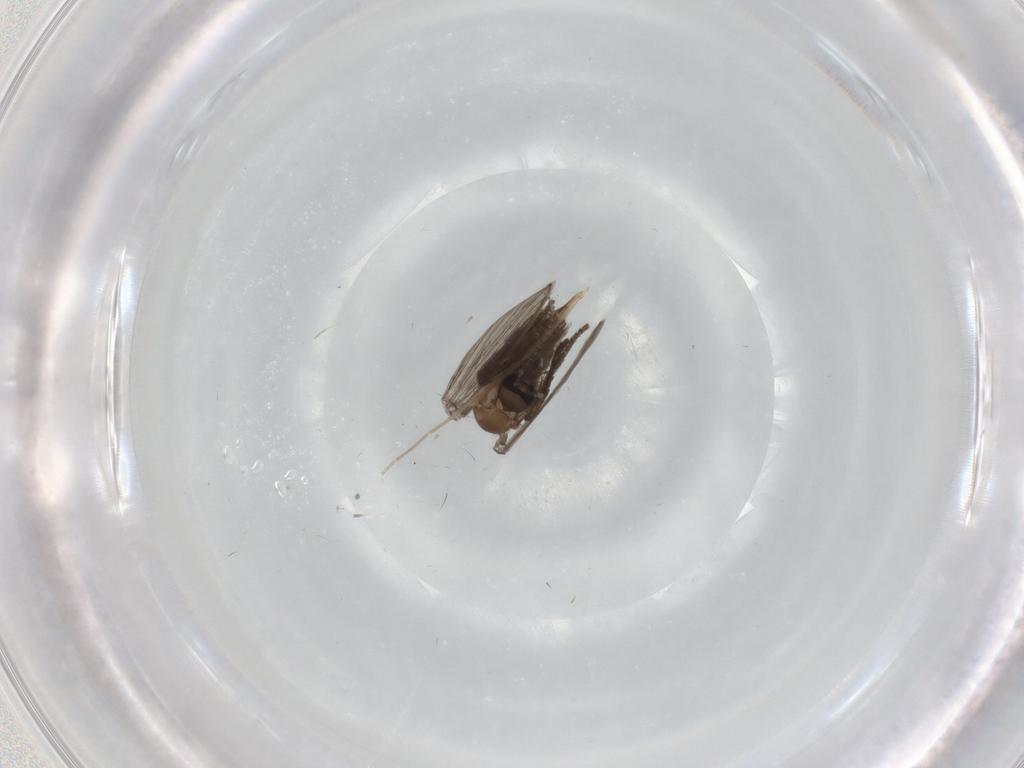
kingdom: Animalia
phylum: Arthropoda
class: Insecta
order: Diptera
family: Chironomidae
